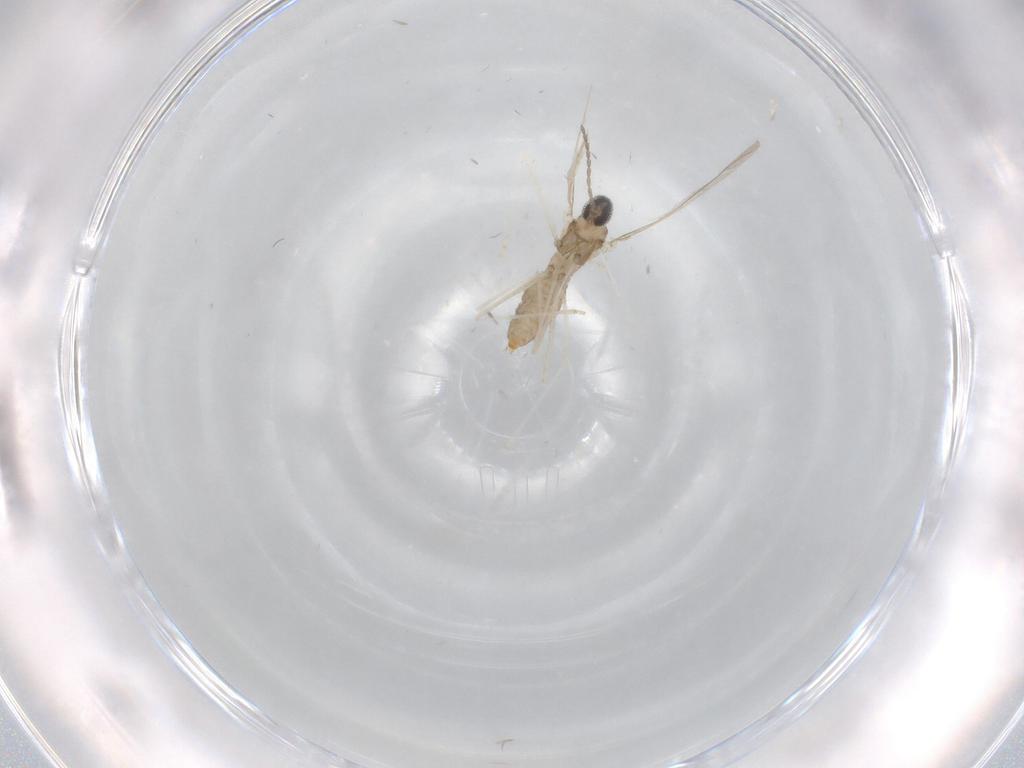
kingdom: Animalia
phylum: Arthropoda
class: Insecta
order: Diptera
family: Cecidomyiidae
